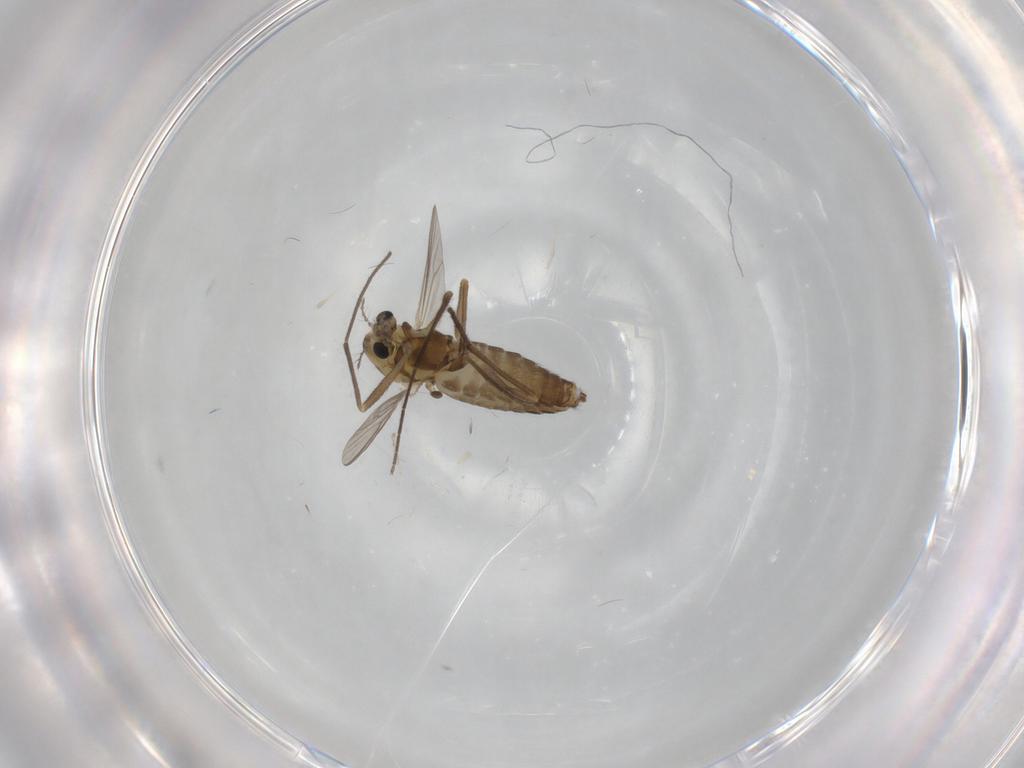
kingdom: Animalia
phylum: Arthropoda
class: Insecta
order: Diptera
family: Chironomidae
